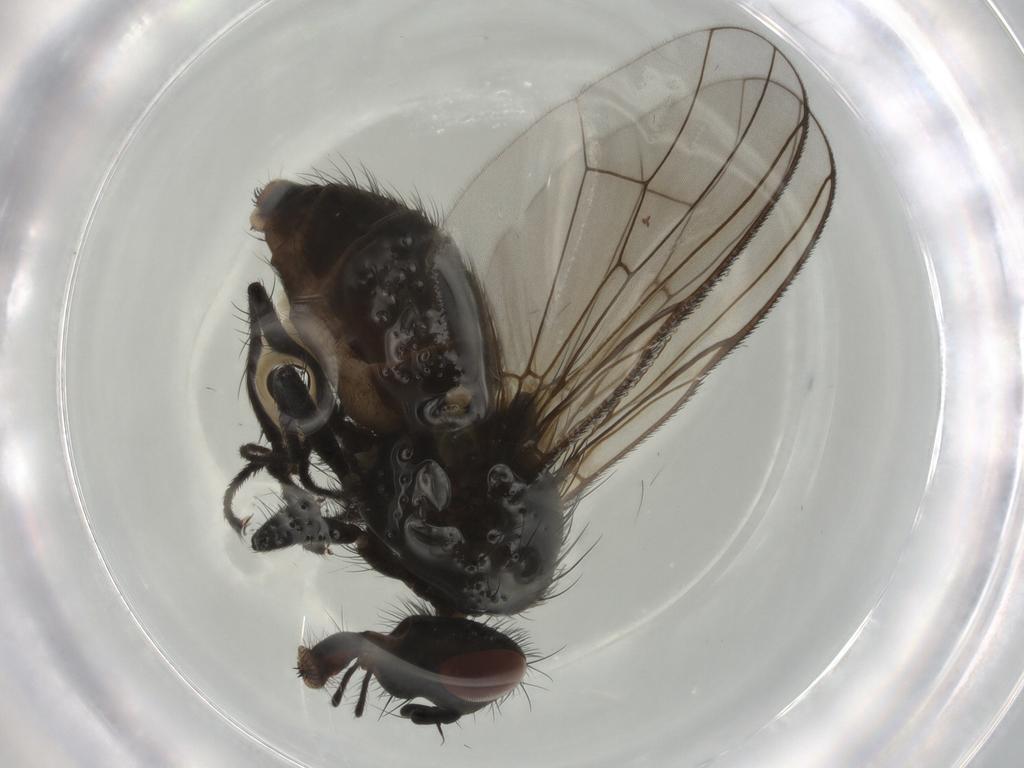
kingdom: Animalia
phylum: Arthropoda
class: Insecta
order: Diptera
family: Muscidae
